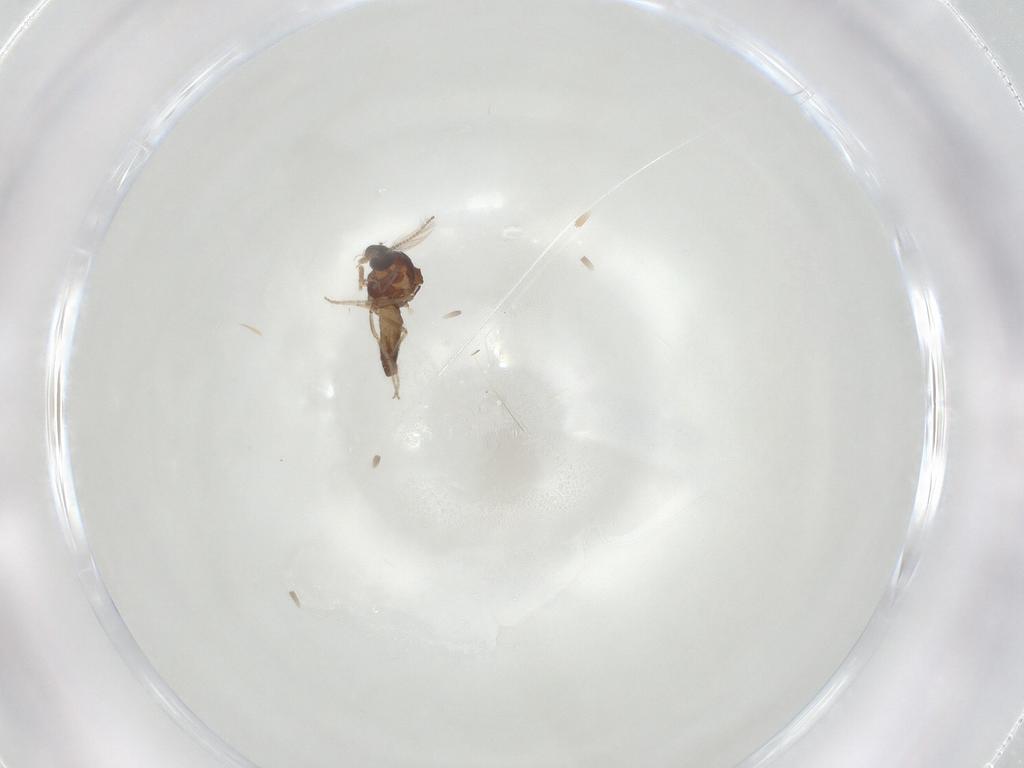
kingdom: Animalia
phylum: Arthropoda
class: Insecta
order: Diptera
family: Ceratopogonidae
